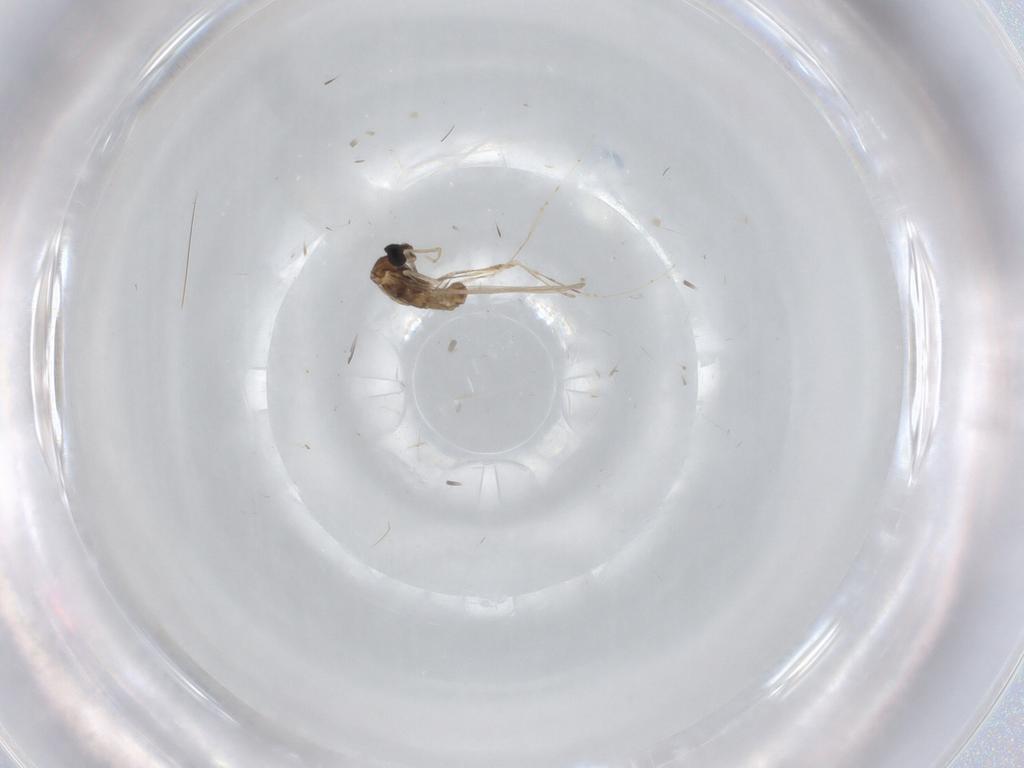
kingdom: Animalia
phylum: Arthropoda
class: Insecta
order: Diptera
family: Cecidomyiidae
